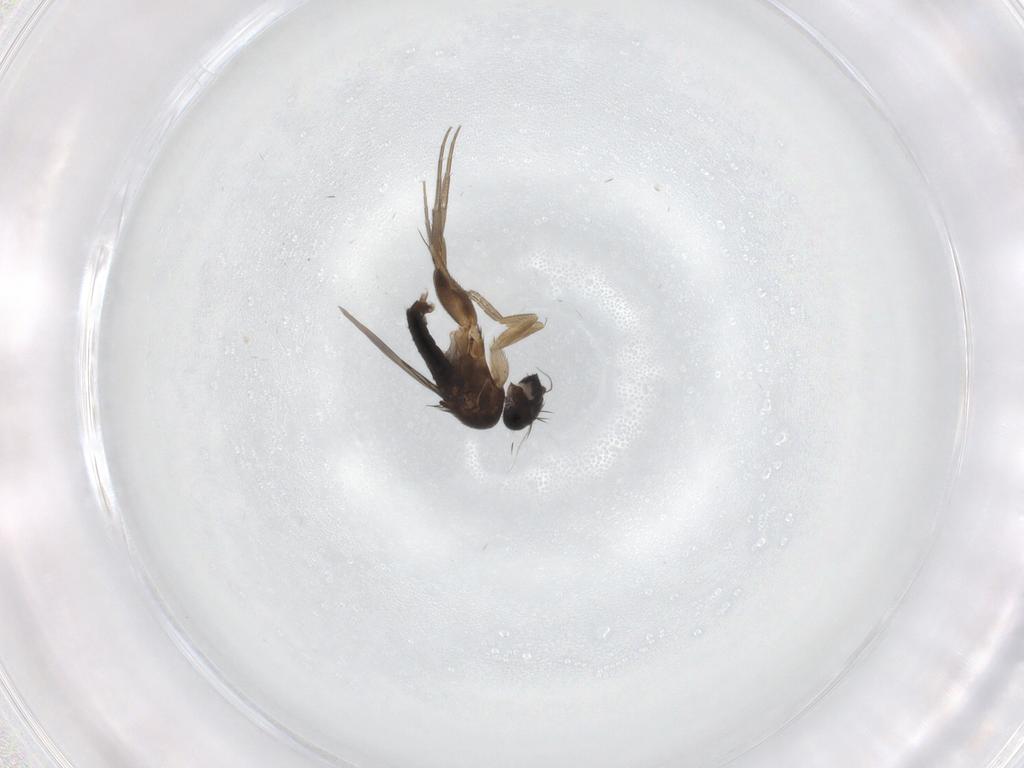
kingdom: Animalia
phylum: Arthropoda
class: Insecta
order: Diptera
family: Phoridae
